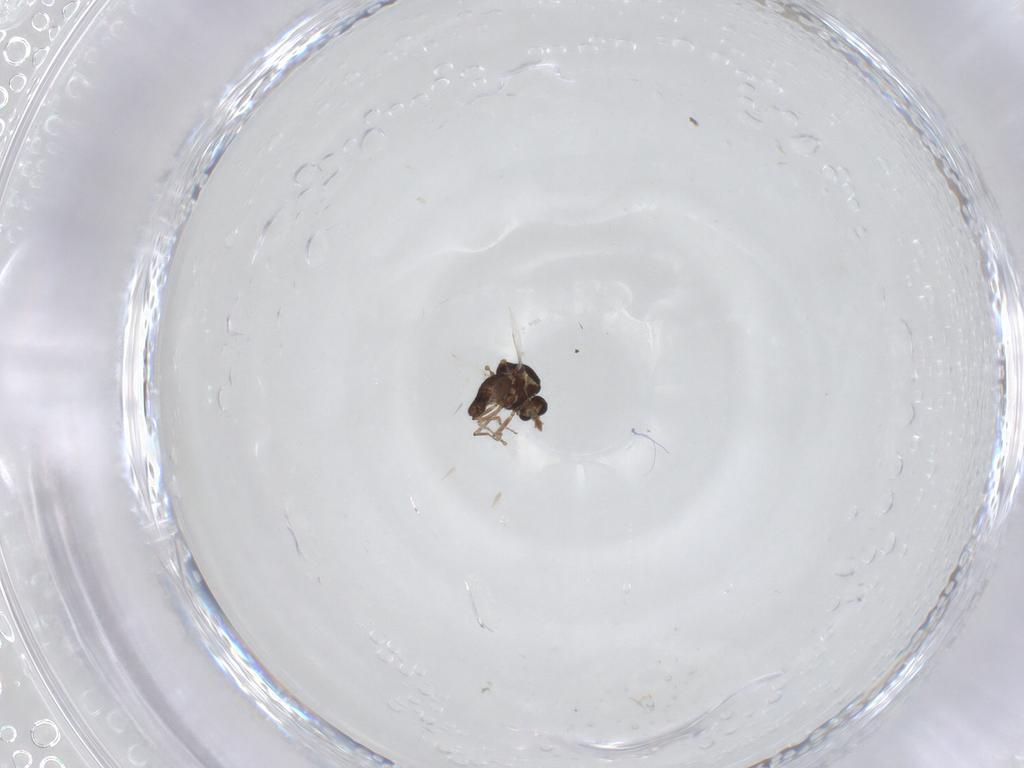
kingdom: Animalia
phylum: Arthropoda
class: Insecta
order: Diptera
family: Ceratopogonidae
